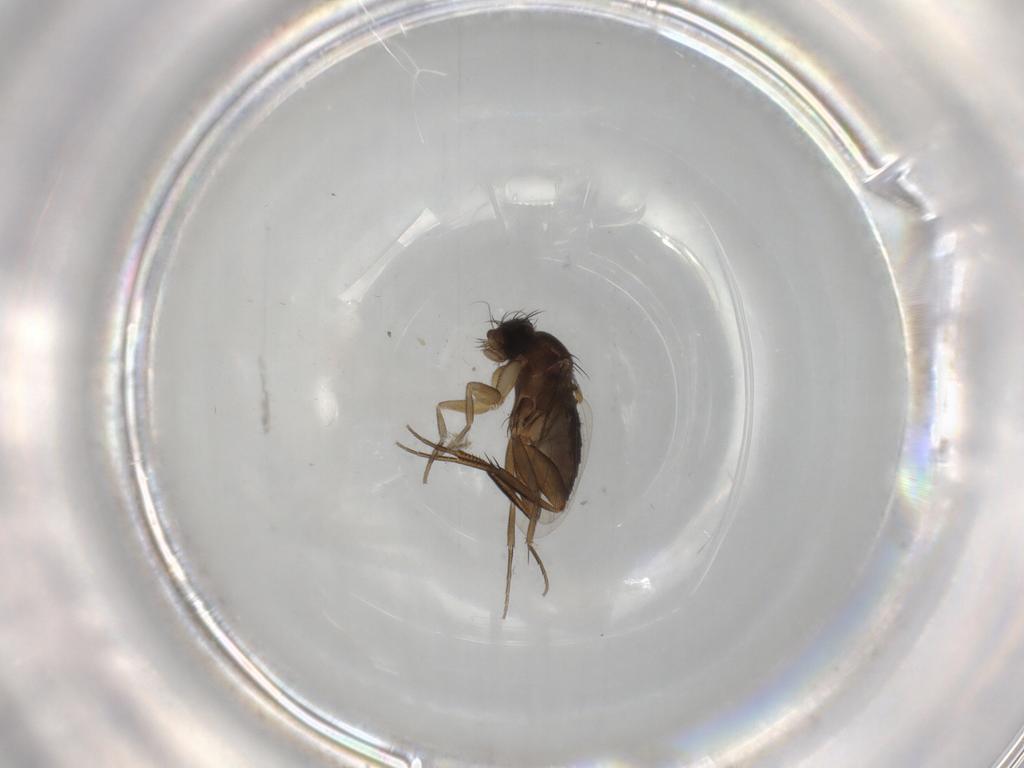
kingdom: Animalia
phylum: Arthropoda
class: Insecta
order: Diptera
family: Phoridae
